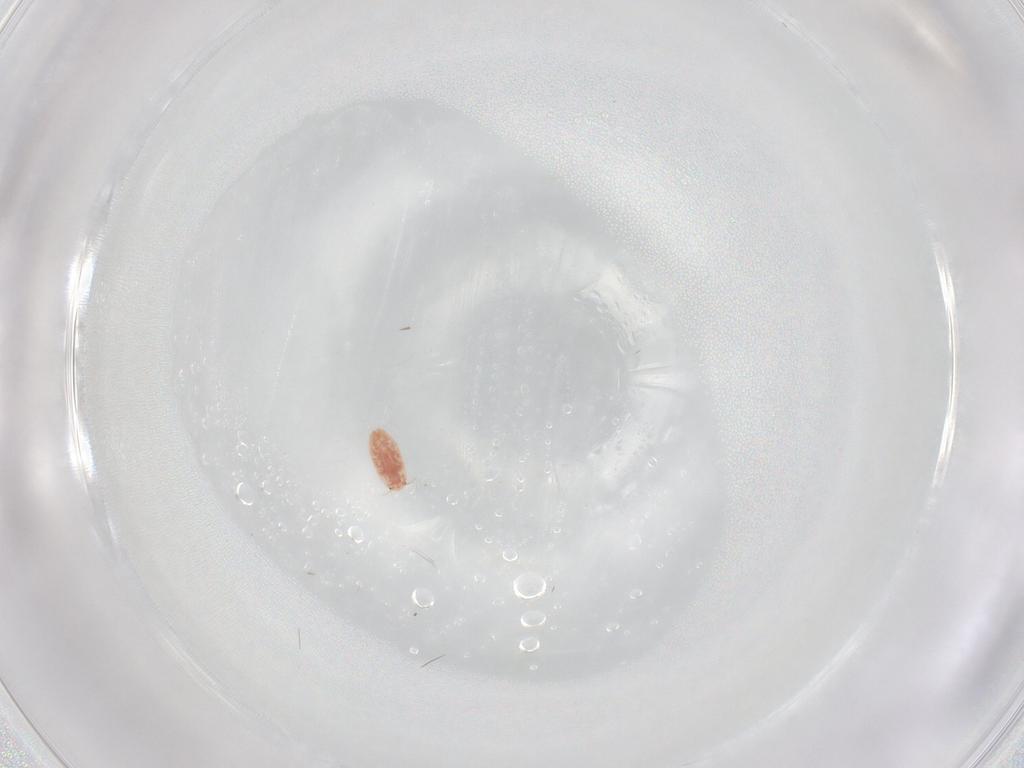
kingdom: Animalia
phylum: Arthropoda
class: Insecta
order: Hemiptera
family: Coccidae
